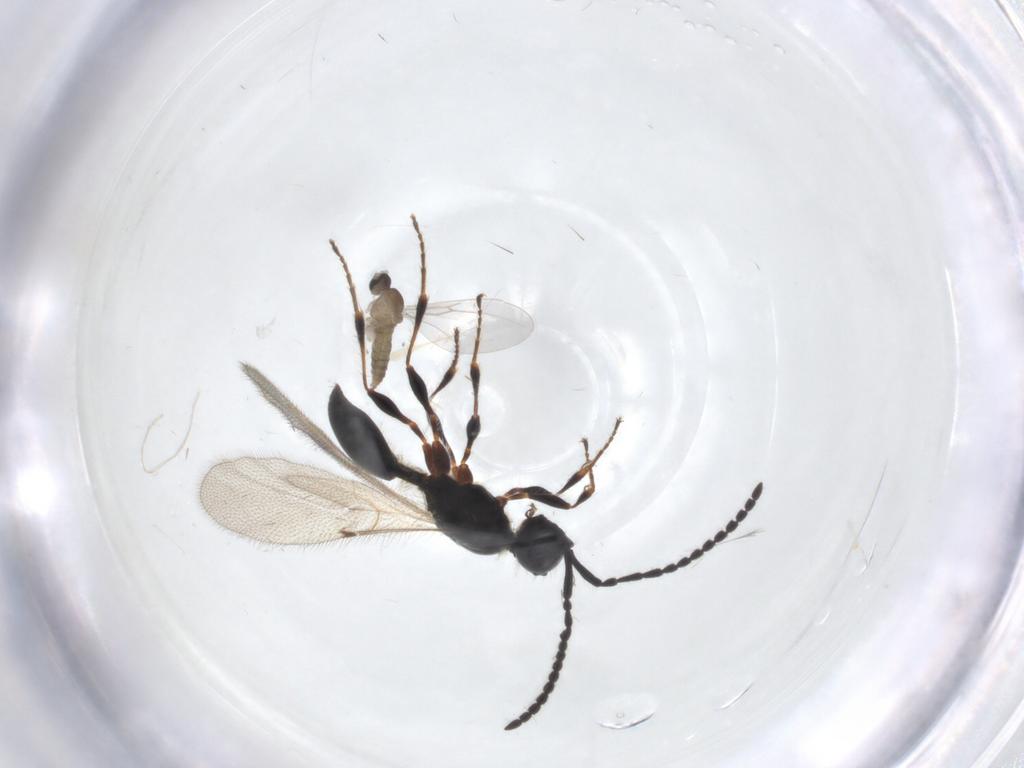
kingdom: Animalia
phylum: Arthropoda
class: Insecta
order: Hymenoptera
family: Diapriidae
